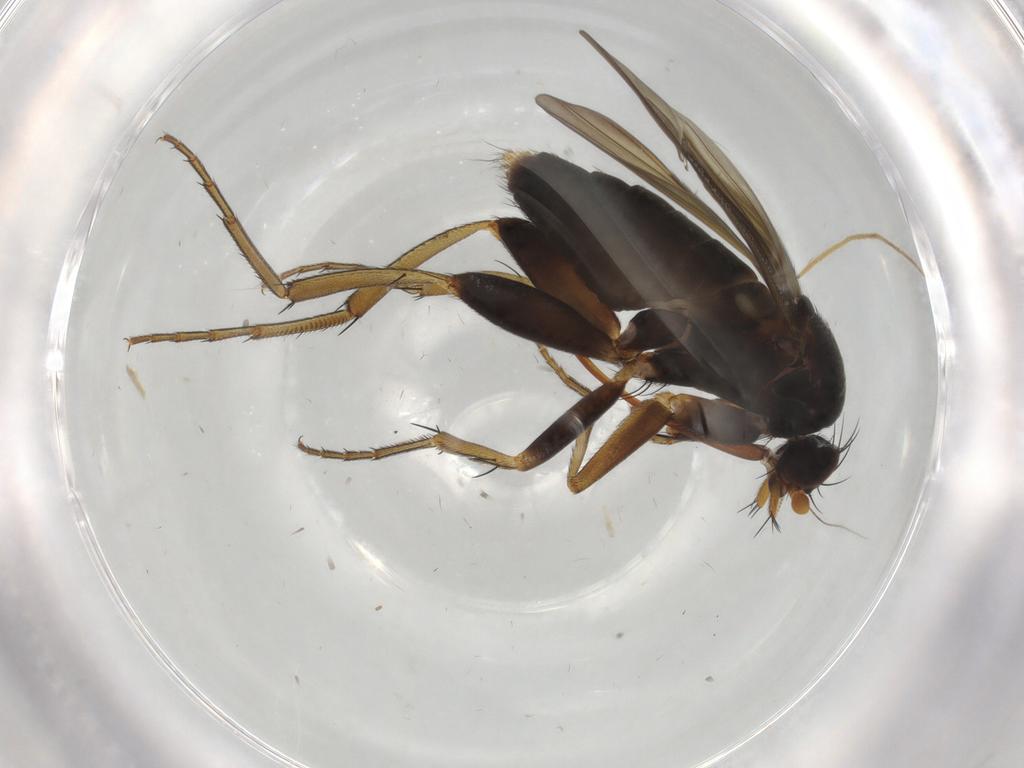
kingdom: Animalia
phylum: Arthropoda
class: Insecta
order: Diptera
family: Phoridae
